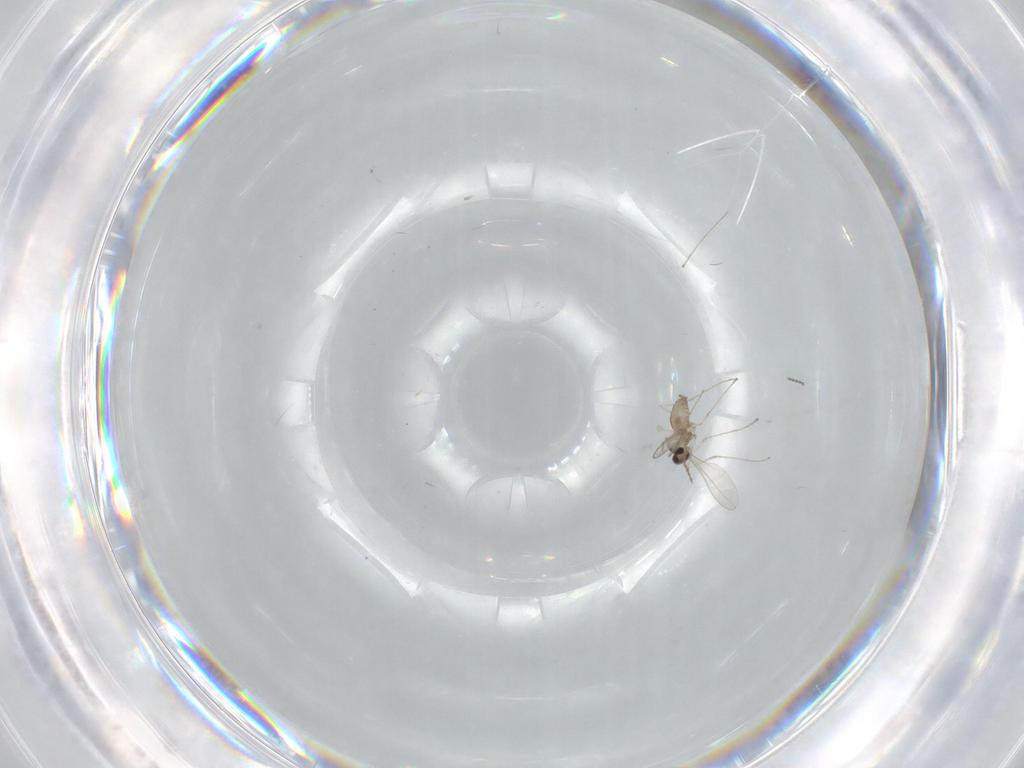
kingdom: Animalia
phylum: Arthropoda
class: Insecta
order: Diptera
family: Cecidomyiidae
